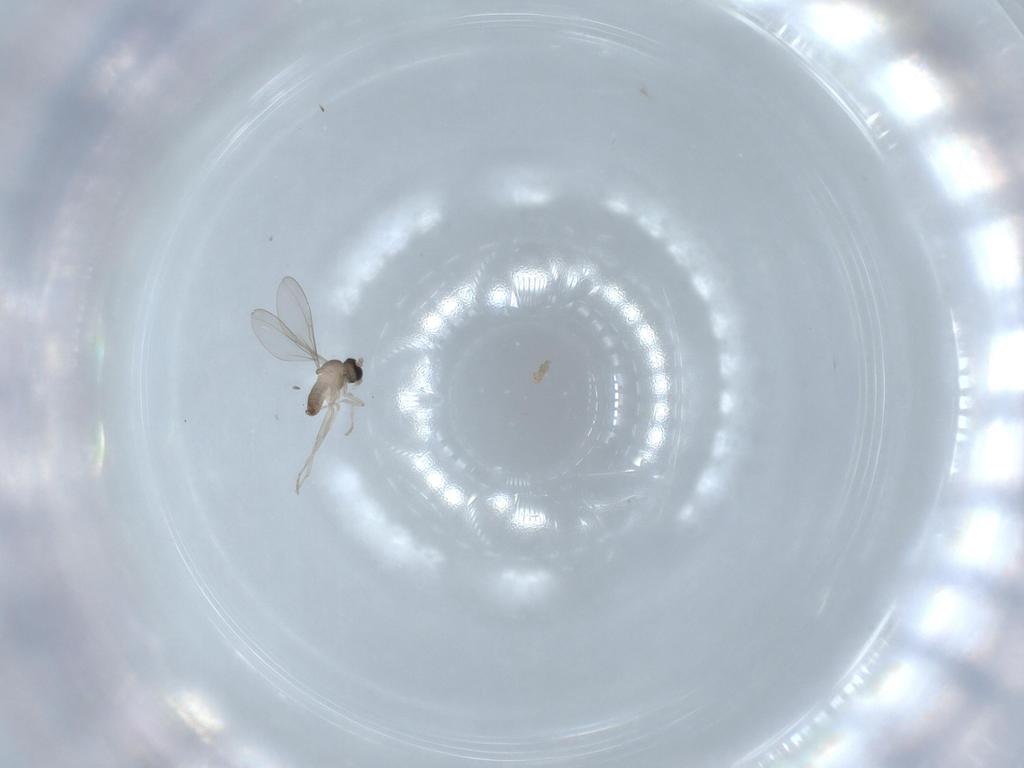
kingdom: Animalia
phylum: Arthropoda
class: Insecta
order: Diptera
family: Cecidomyiidae
